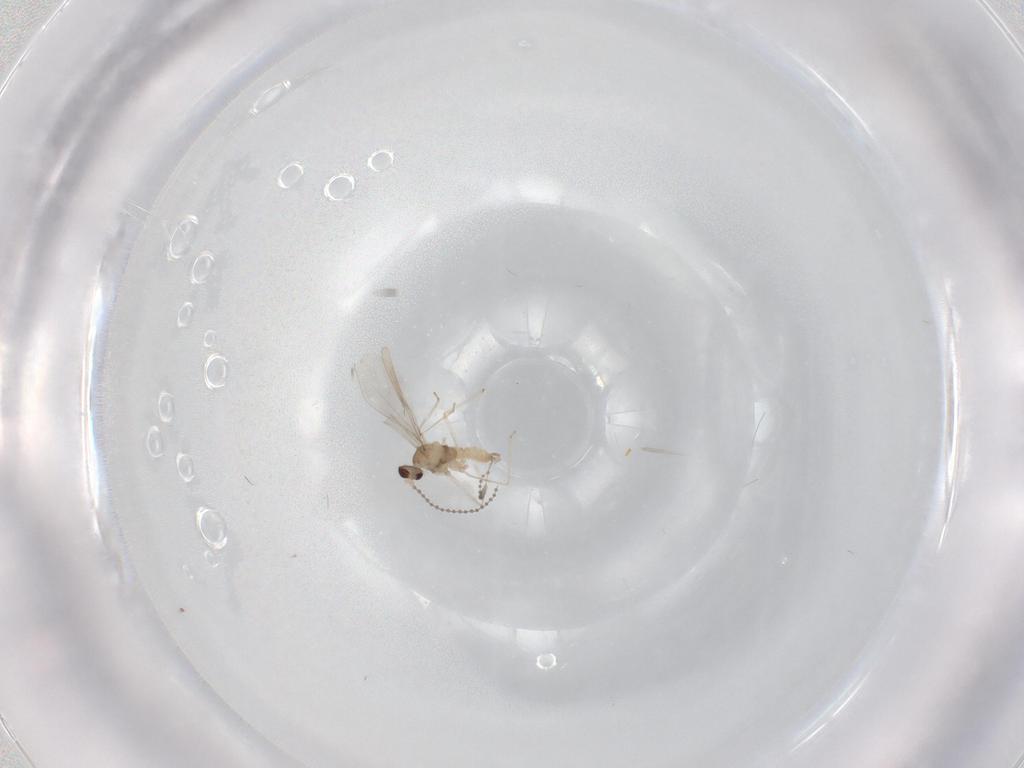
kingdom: Animalia
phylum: Arthropoda
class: Insecta
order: Diptera
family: Cecidomyiidae
